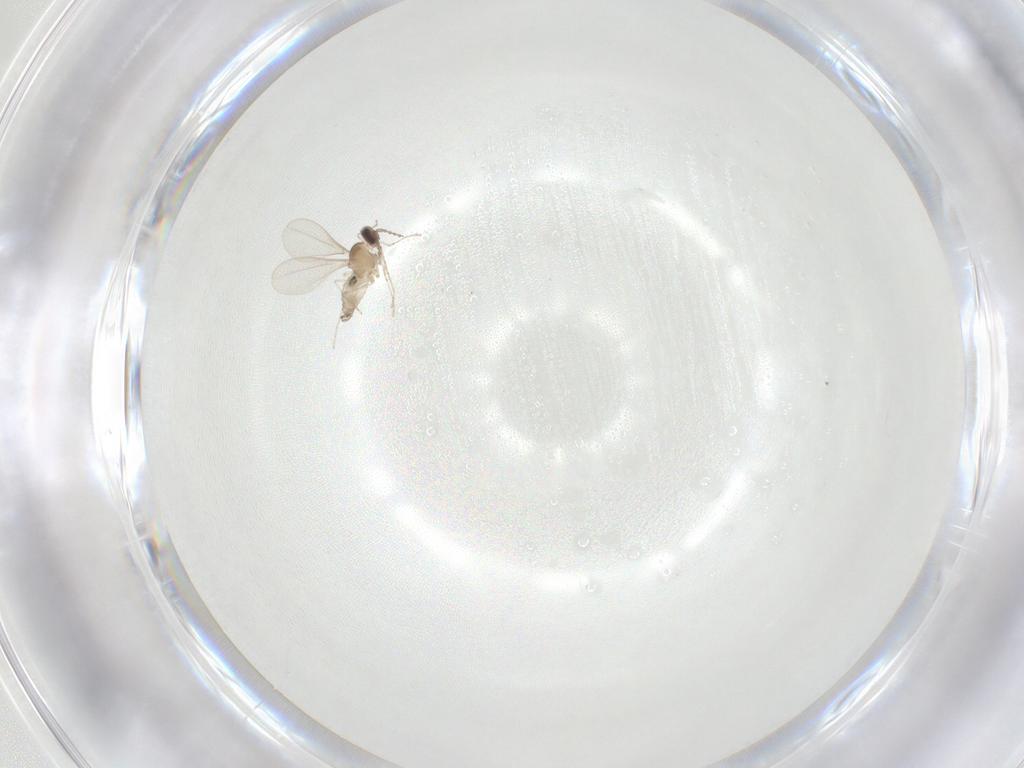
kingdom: Animalia
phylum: Arthropoda
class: Insecta
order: Diptera
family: Cecidomyiidae
